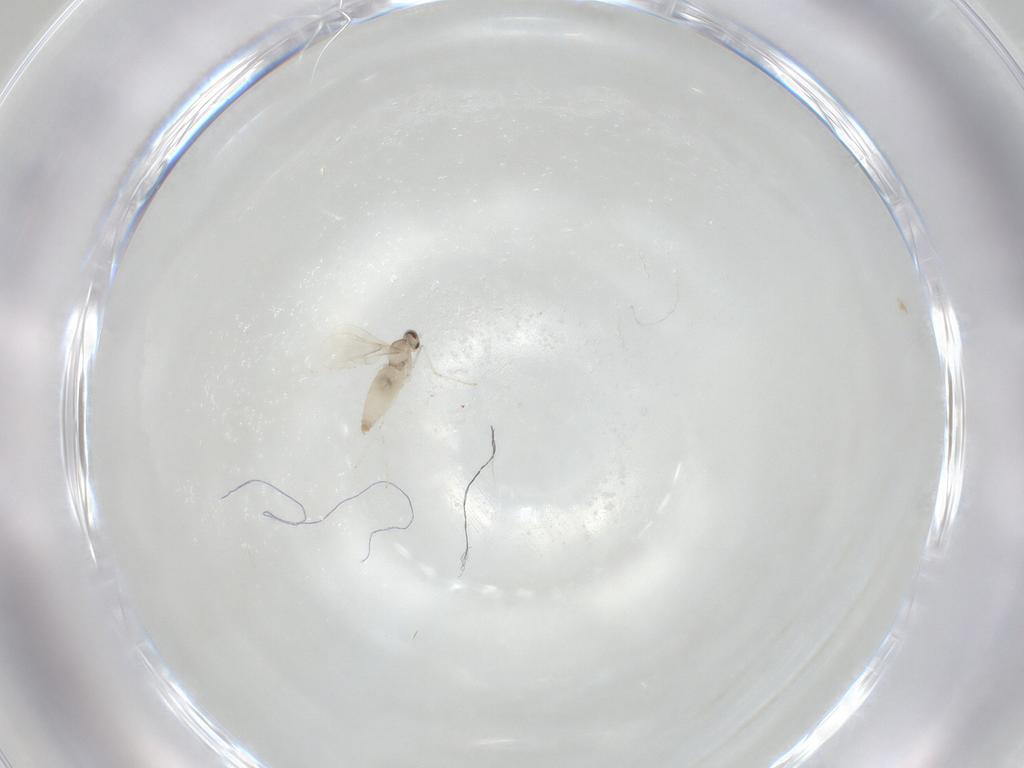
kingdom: Animalia
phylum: Arthropoda
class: Insecta
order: Diptera
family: Cecidomyiidae
